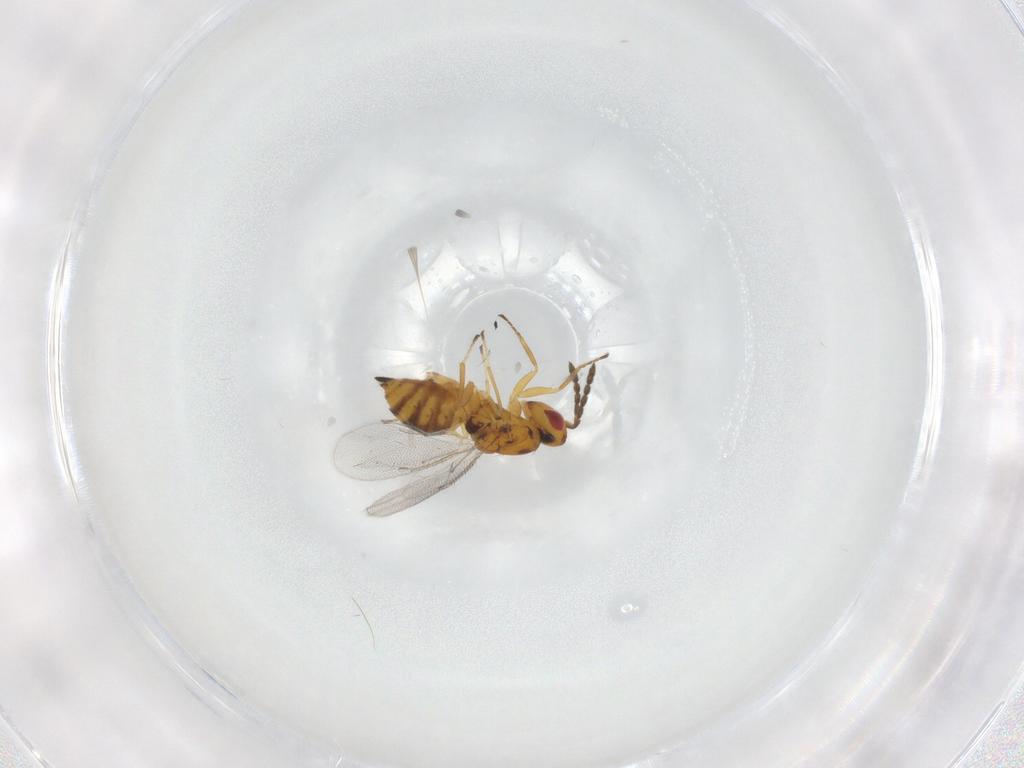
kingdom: Animalia
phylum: Arthropoda
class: Insecta
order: Hymenoptera
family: Eulophidae
